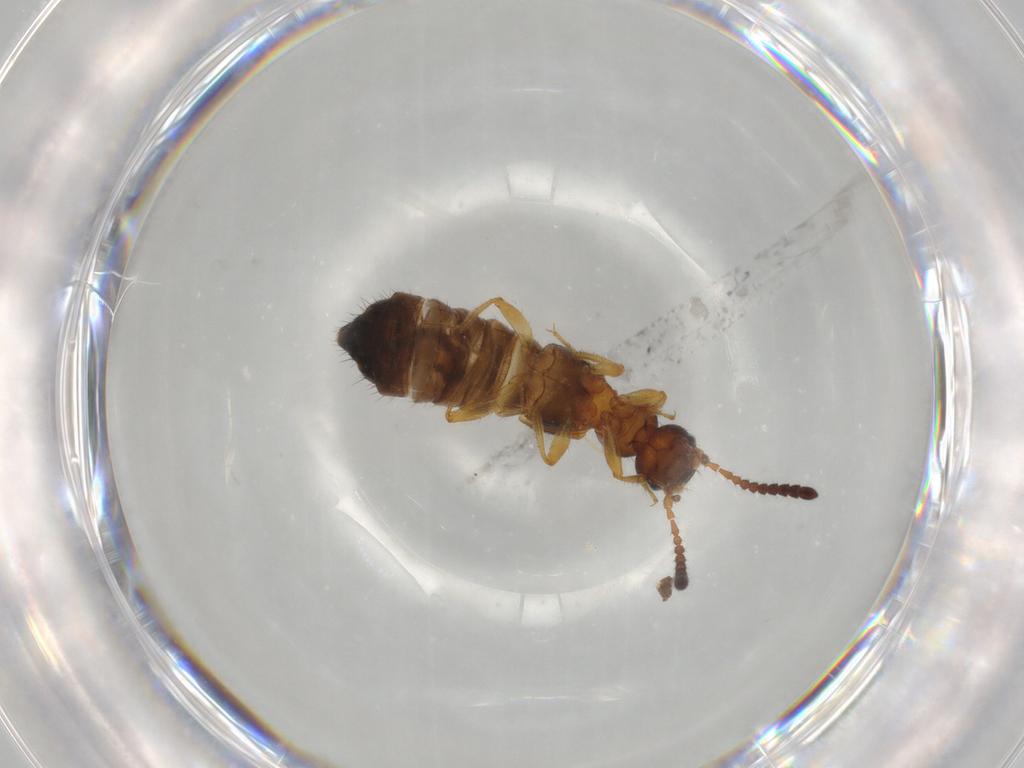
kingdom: Animalia
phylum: Arthropoda
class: Insecta
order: Coleoptera
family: Staphylinidae
